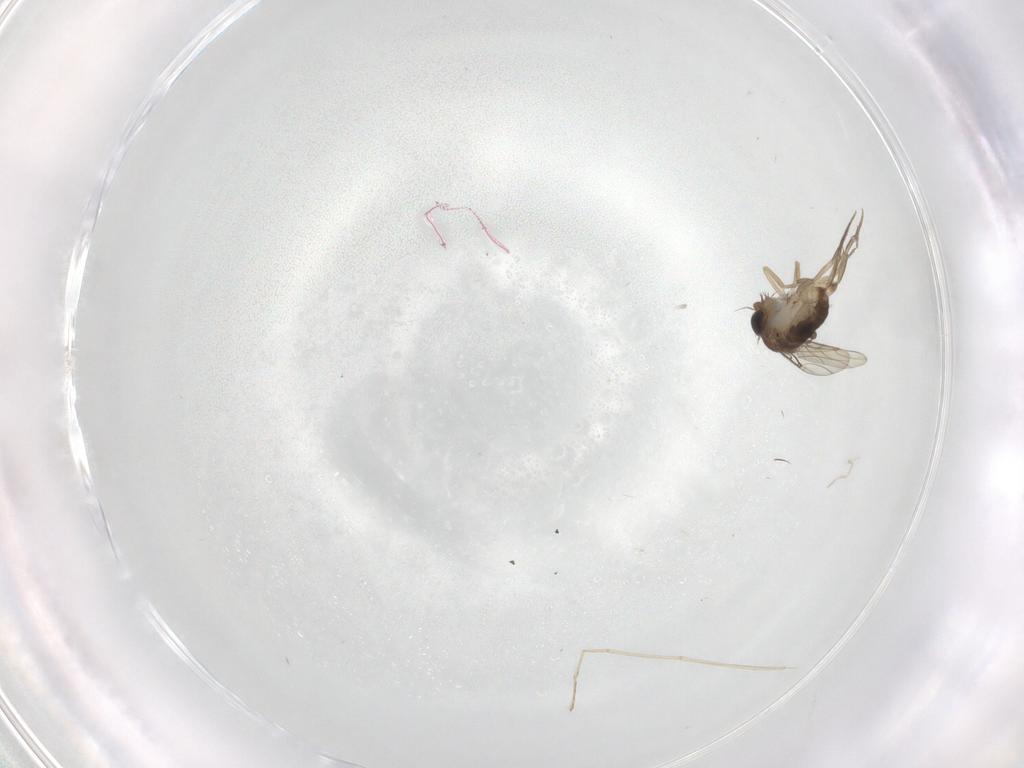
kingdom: Animalia
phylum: Arthropoda
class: Insecta
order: Diptera
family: Phoridae
